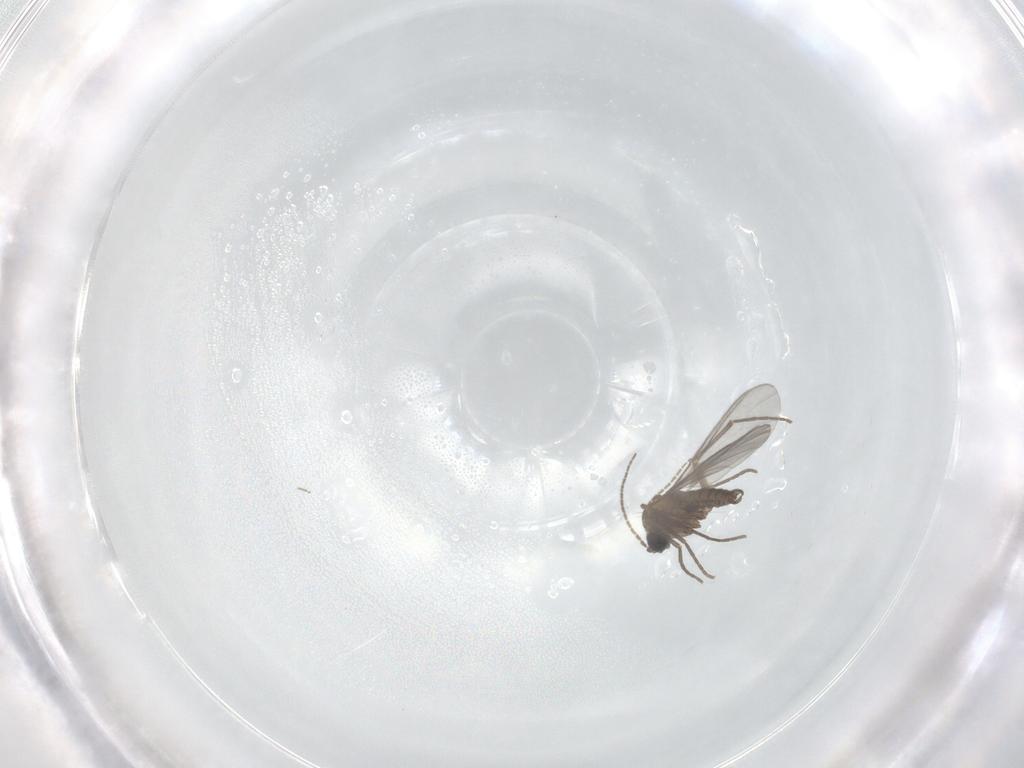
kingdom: Animalia
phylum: Arthropoda
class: Insecta
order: Diptera
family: Sciaridae
